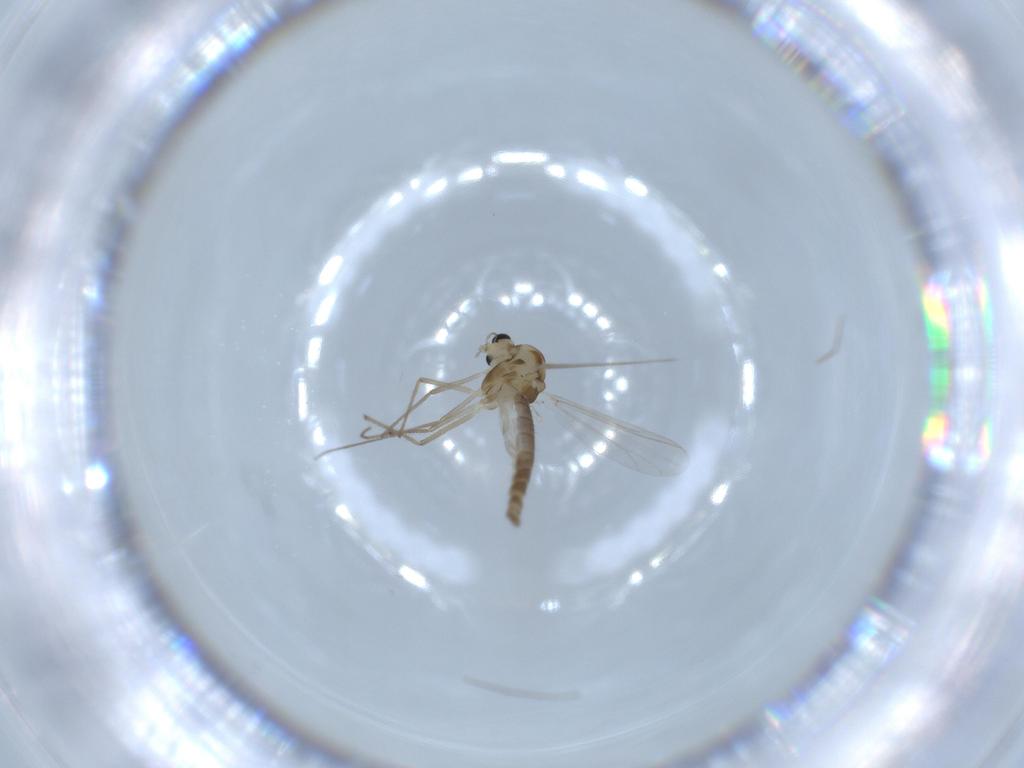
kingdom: Animalia
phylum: Arthropoda
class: Insecta
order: Diptera
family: Chironomidae
